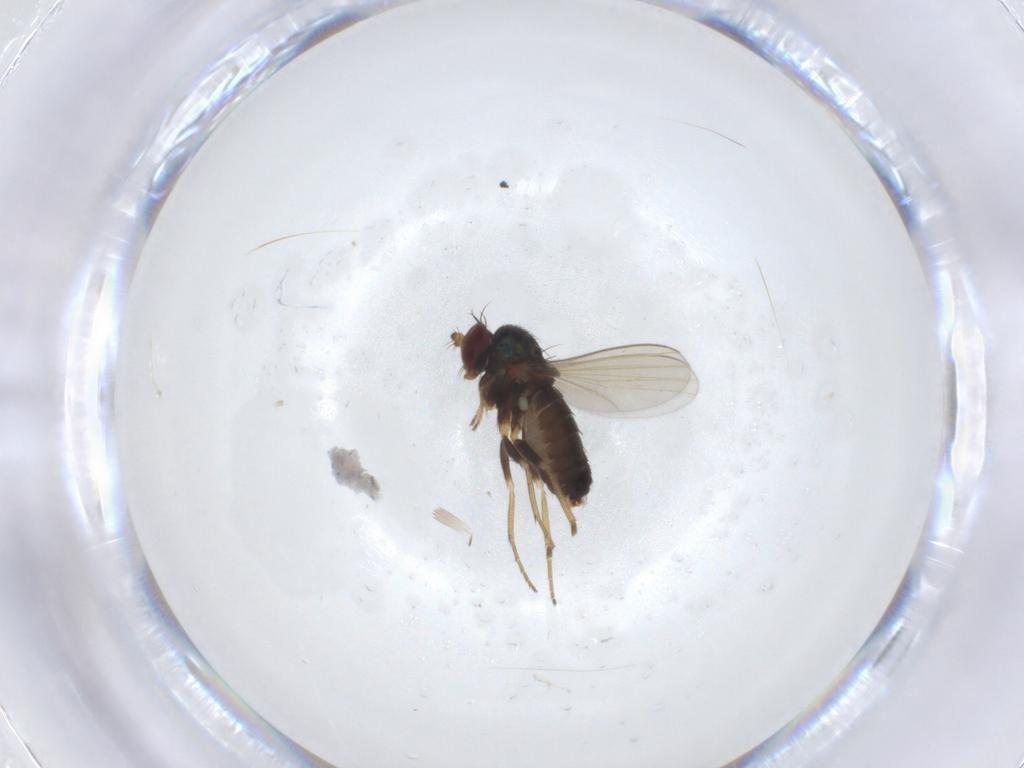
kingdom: Animalia
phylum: Arthropoda
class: Insecta
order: Diptera
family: Dolichopodidae
